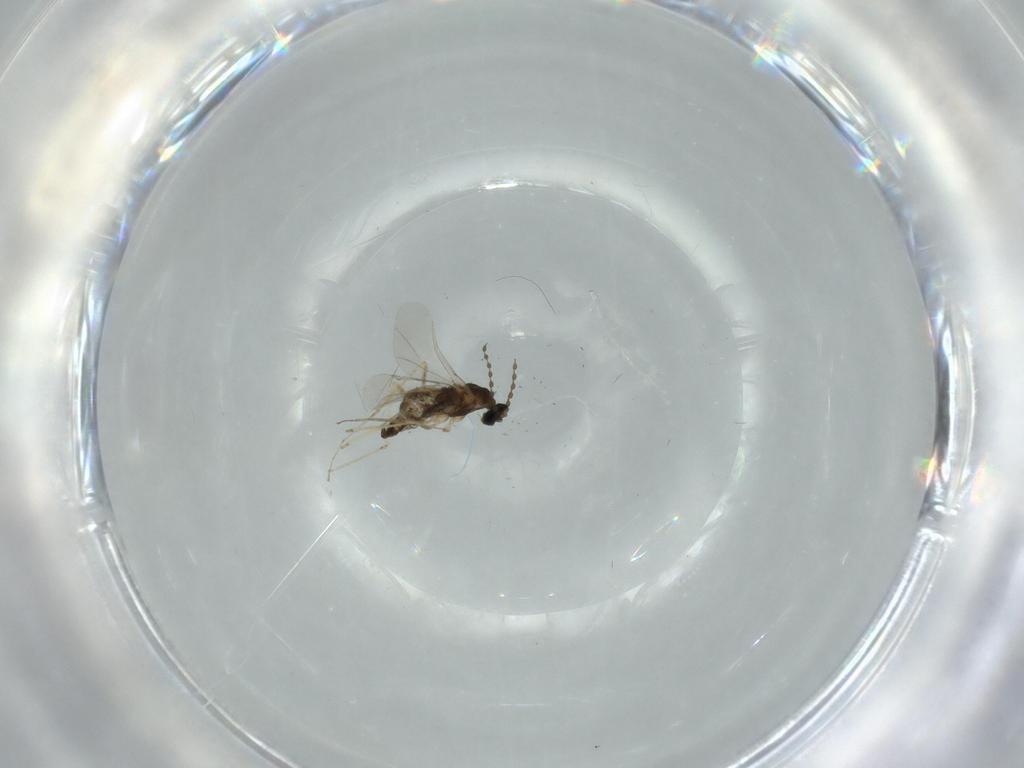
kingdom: Animalia
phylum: Arthropoda
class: Insecta
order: Diptera
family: Cecidomyiidae
